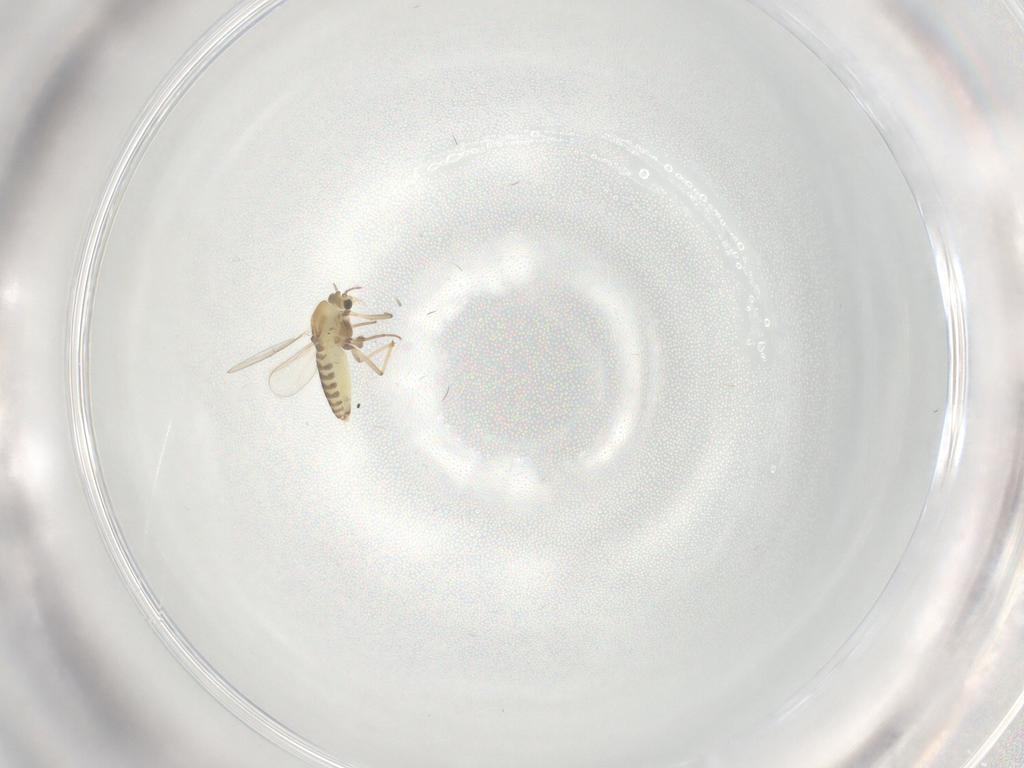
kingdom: Animalia
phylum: Arthropoda
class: Insecta
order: Diptera
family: Chironomidae
